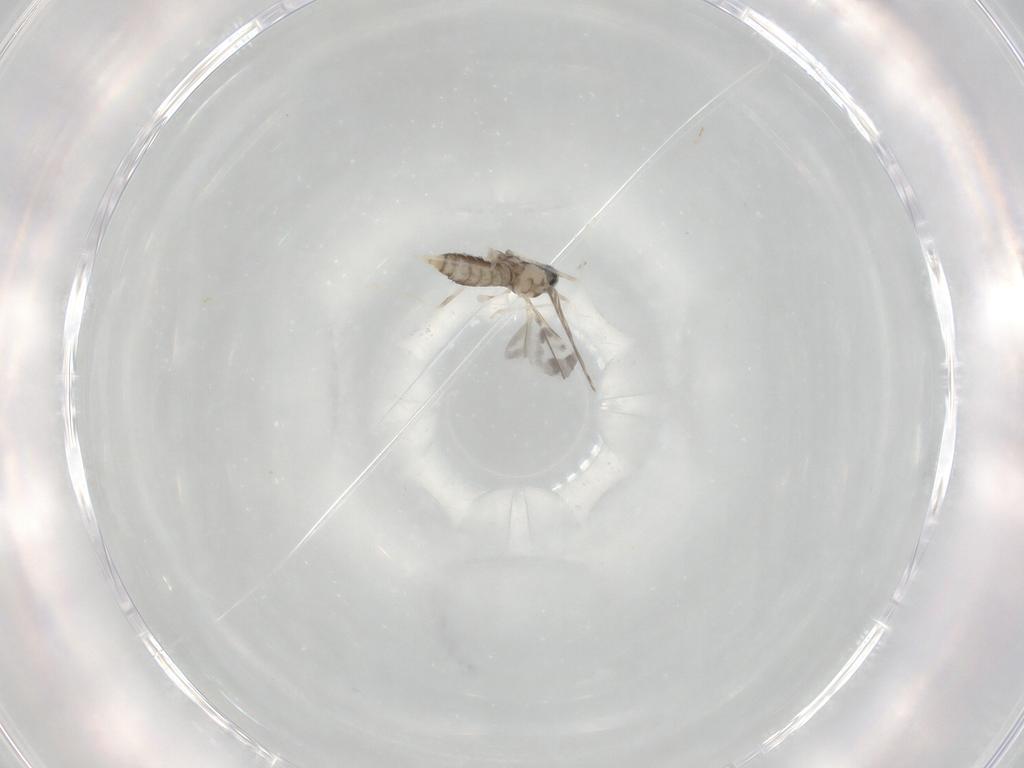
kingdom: Animalia
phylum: Arthropoda
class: Insecta
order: Diptera
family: Cecidomyiidae
